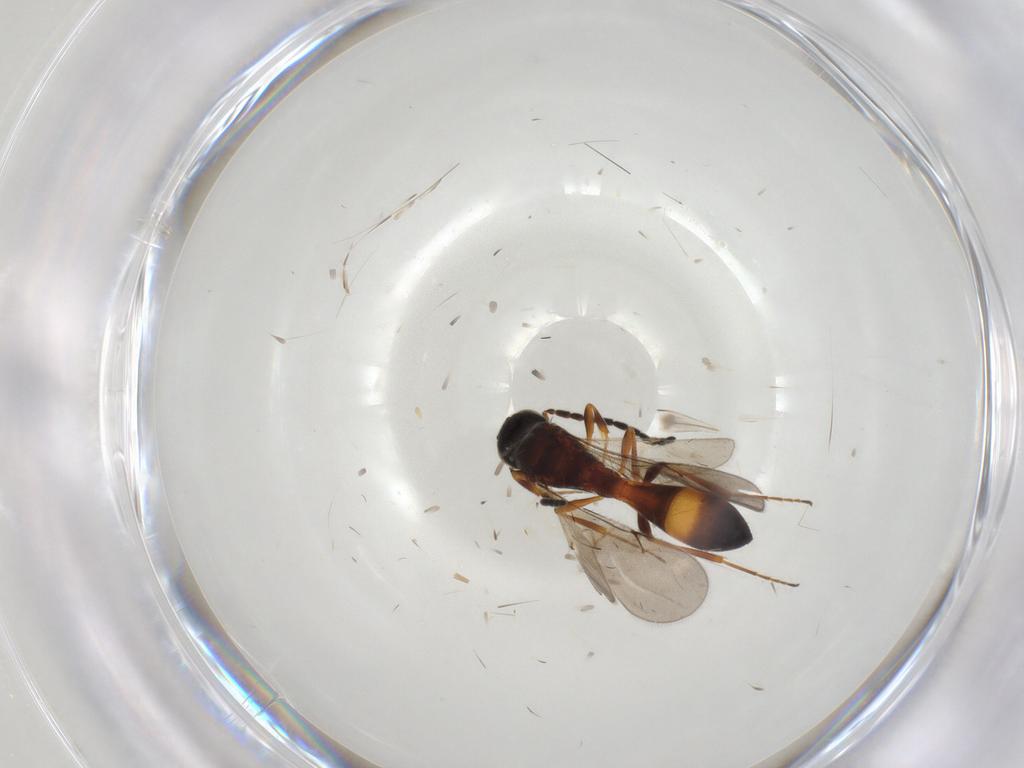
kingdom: Animalia
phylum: Arthropoda
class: Insecta
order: Hymenoptera
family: Scelionidae
